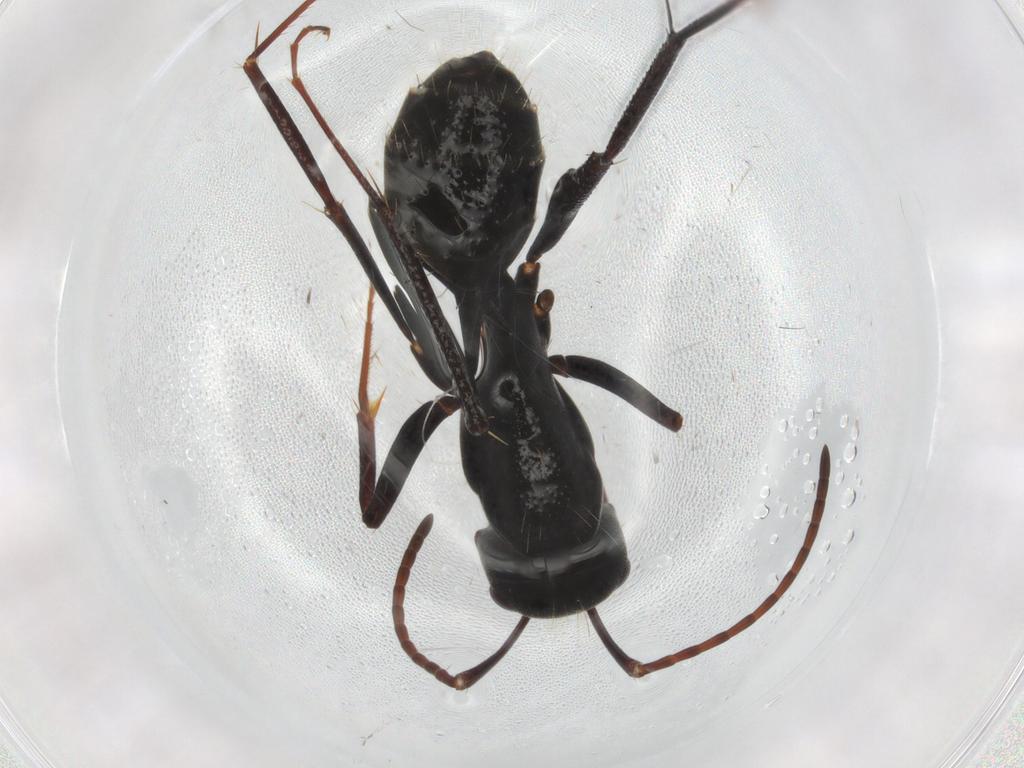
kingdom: Animalia
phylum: Arthropoda
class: Insecta
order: Hymenoptera
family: Formicidae
